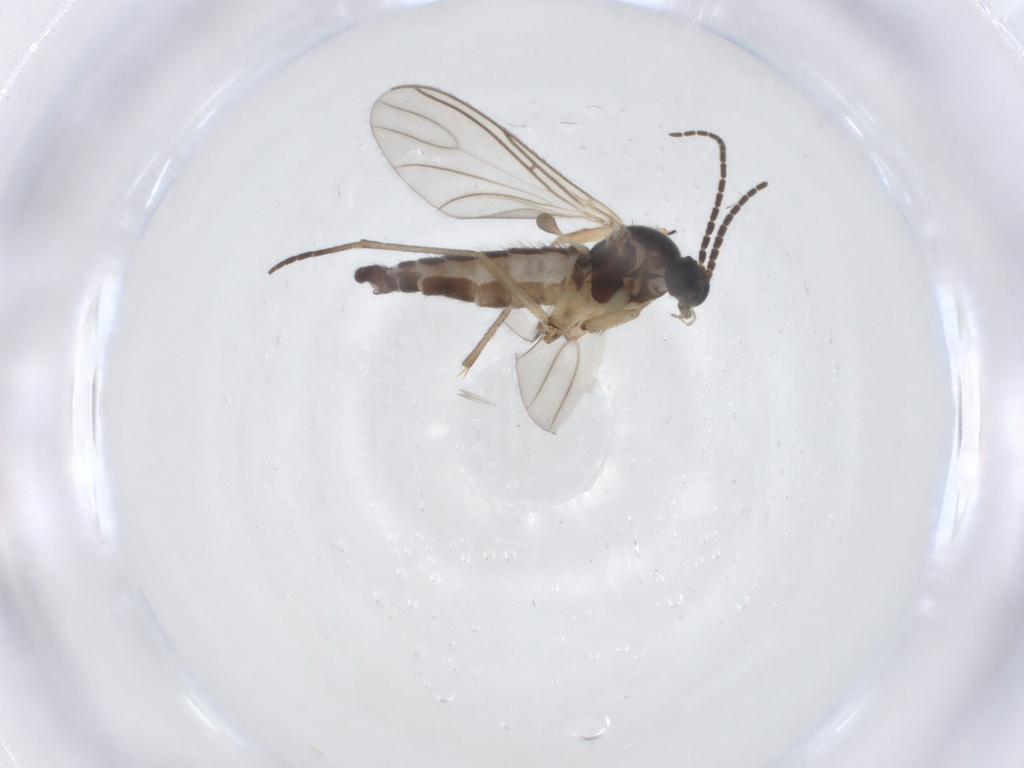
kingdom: Animalia
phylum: Arthropoda
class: Insecta
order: Diptera
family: Sciaridae
